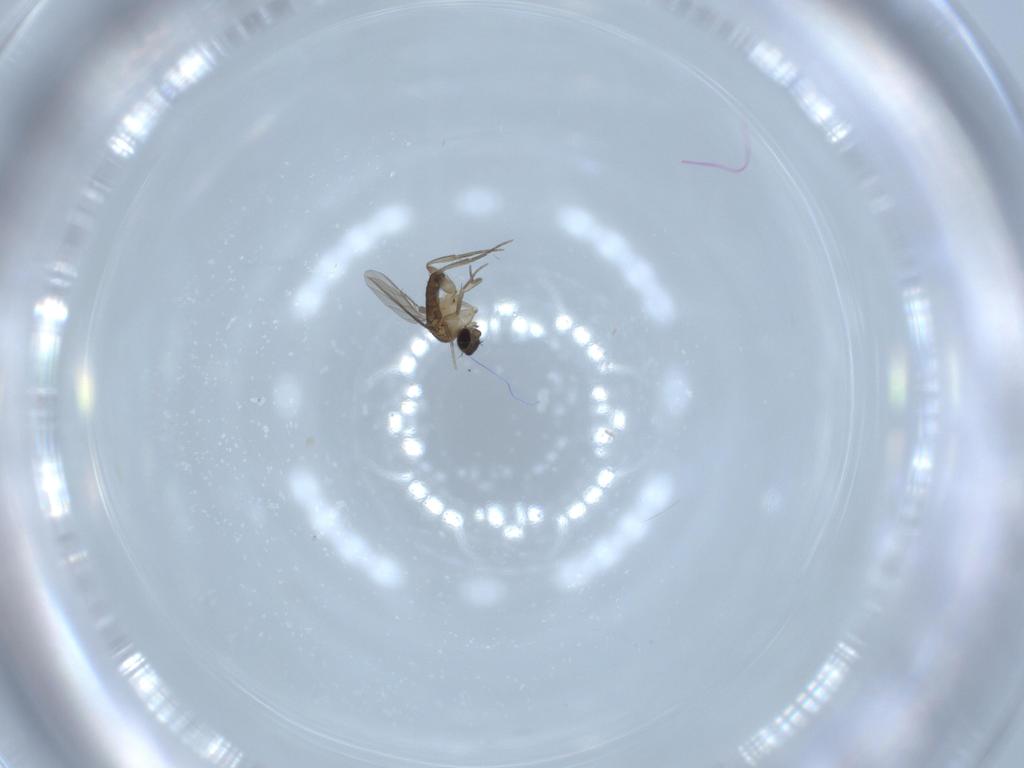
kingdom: Animalia
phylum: Arthropoda
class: Insecta
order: Diptera
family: Phoridae
